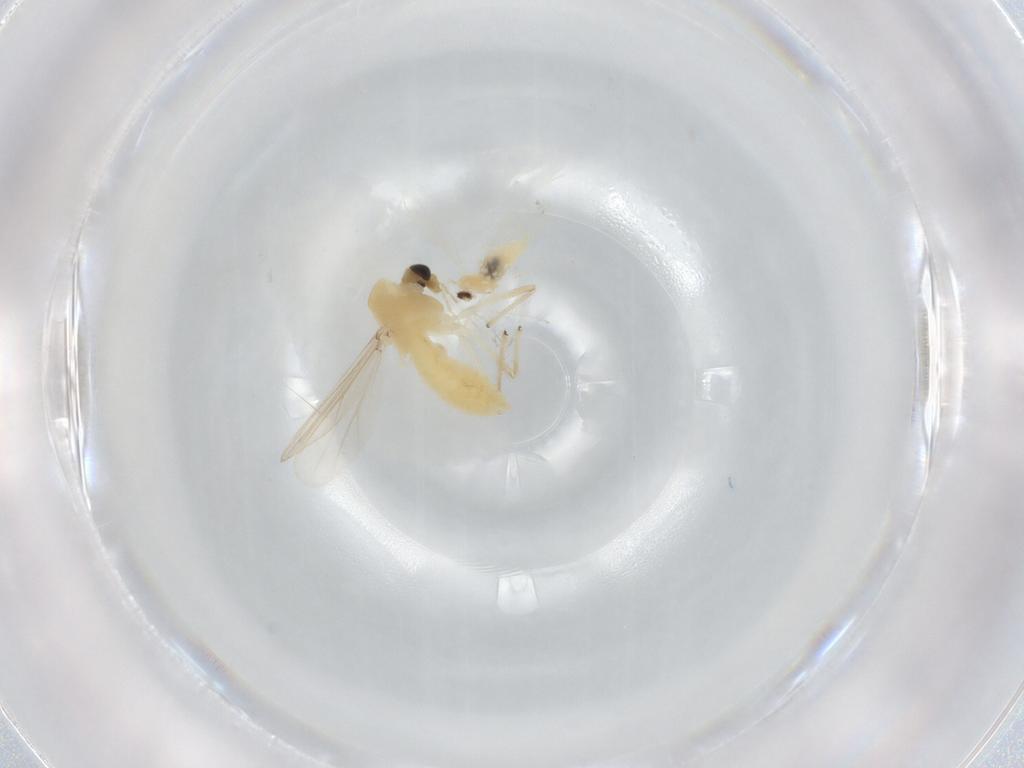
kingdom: Animalia
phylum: Arthropoda
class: Insecta
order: Diptera
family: Chironomidae
